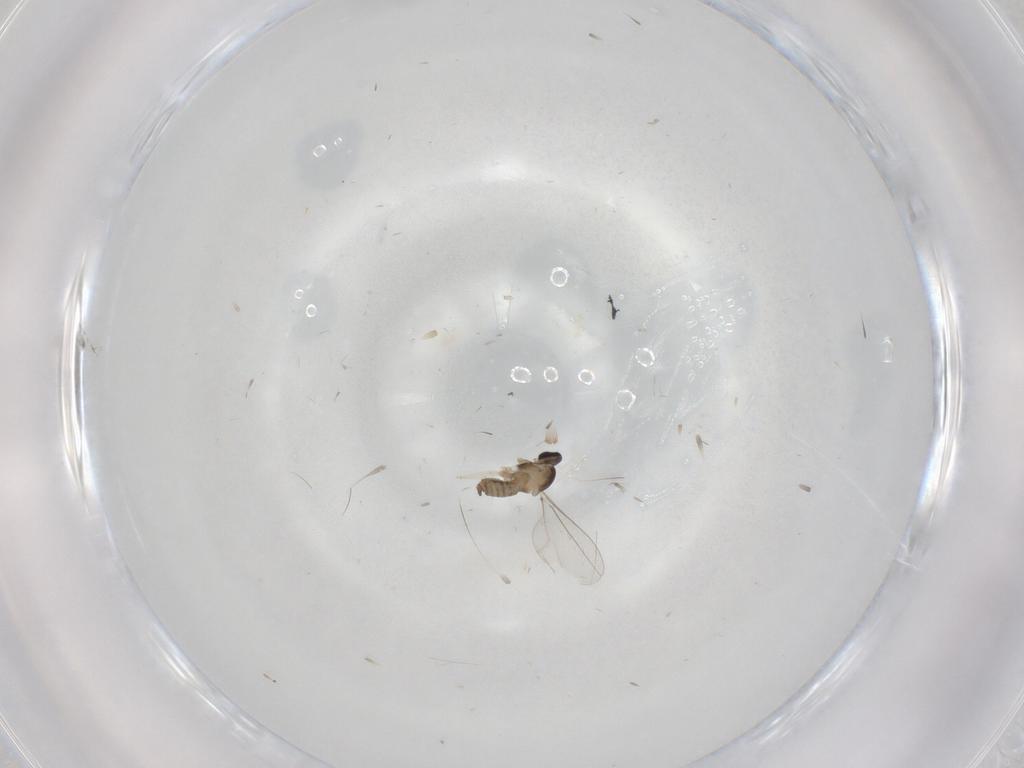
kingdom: Animalia
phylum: Arthropoda
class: Insecta
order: Diptera
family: Cecidomyiidae
